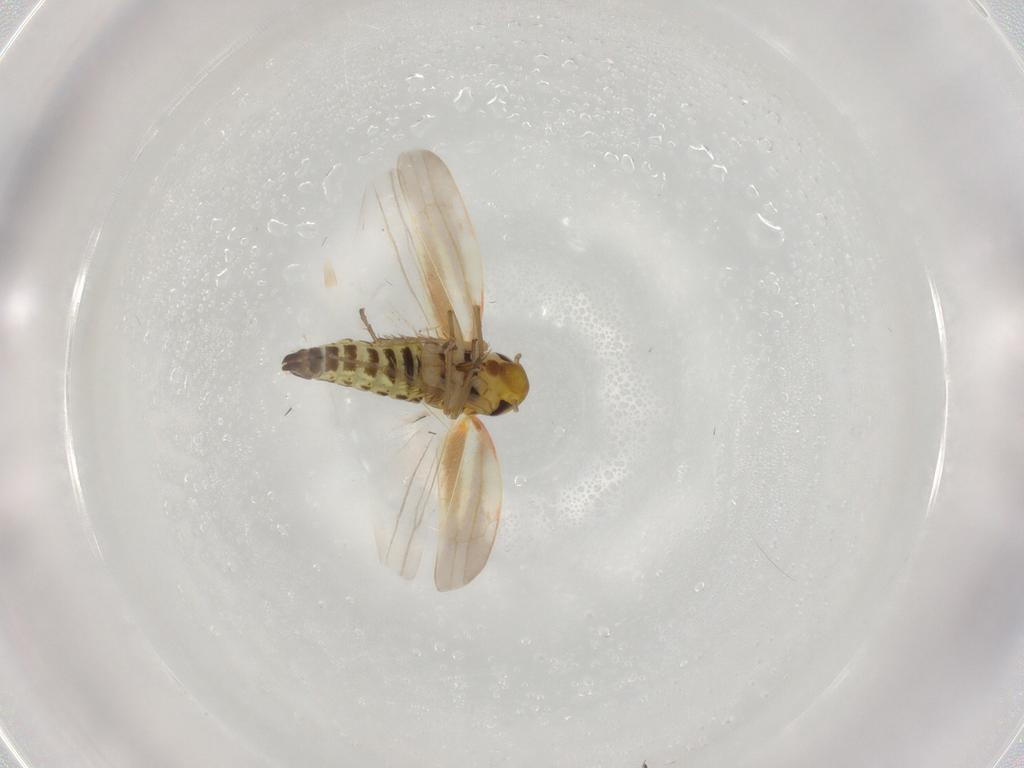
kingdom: Animalia
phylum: Arthropoda
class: Insecta
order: Hemiptera
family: Cicadellidae
